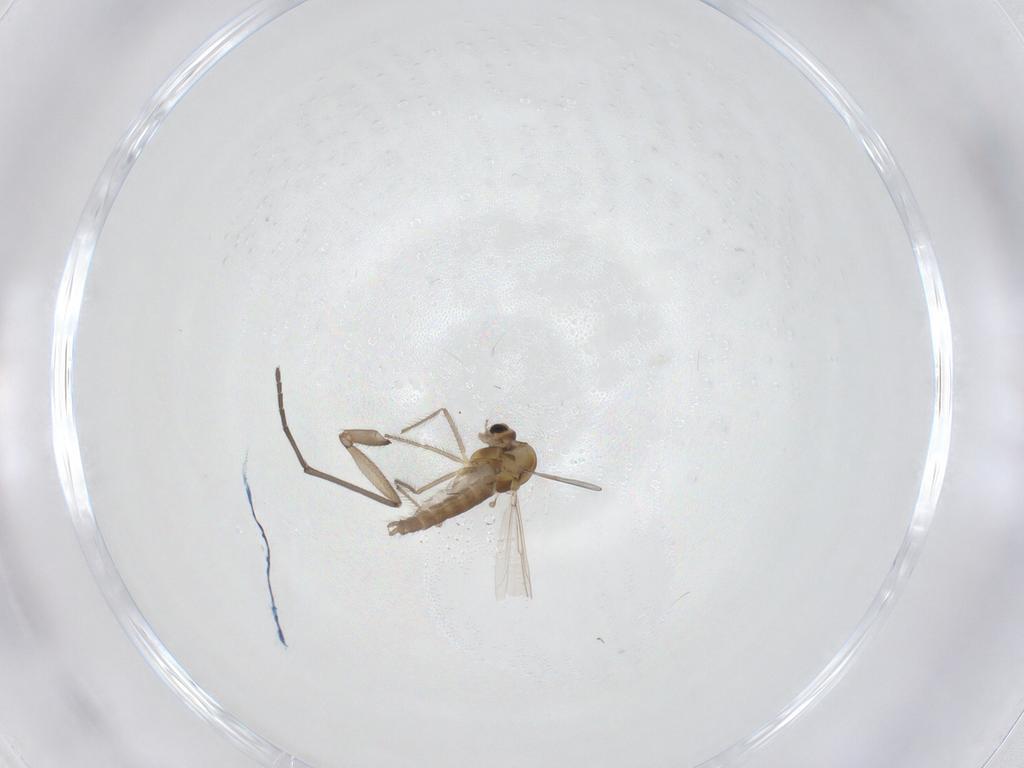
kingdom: Animalia
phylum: Arthropoda
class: Insecta
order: Diptera
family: Chironomidae
